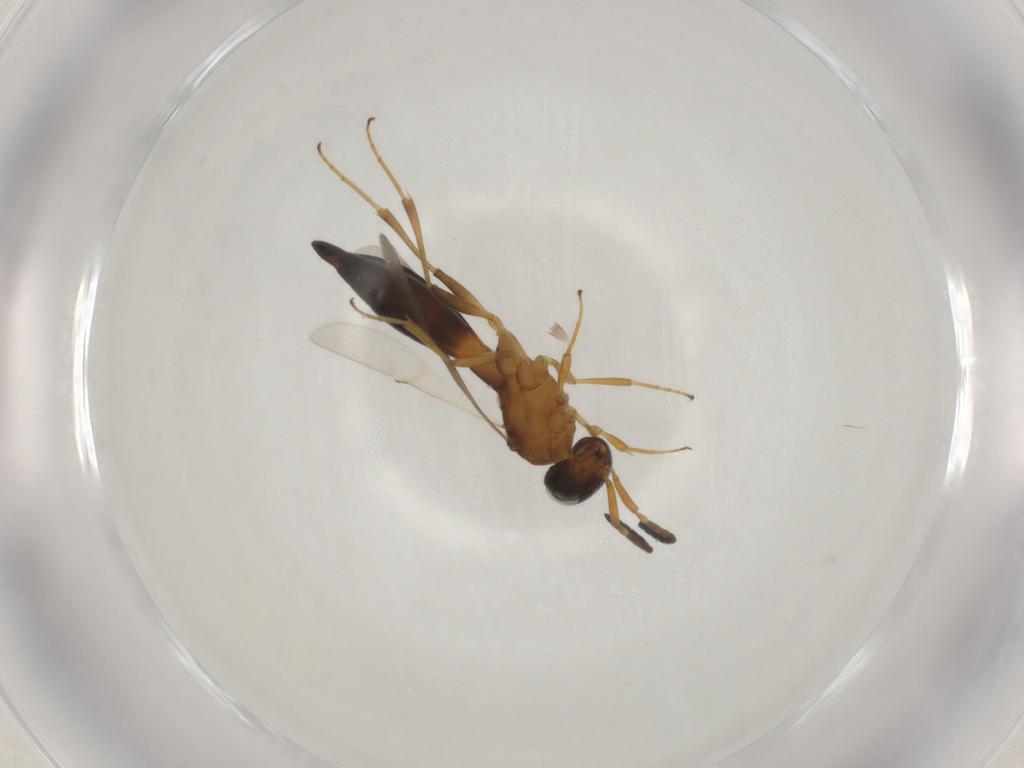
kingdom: Animalia
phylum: Arthropoda
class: Insecta
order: Hymenoptera
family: Scelionidae
